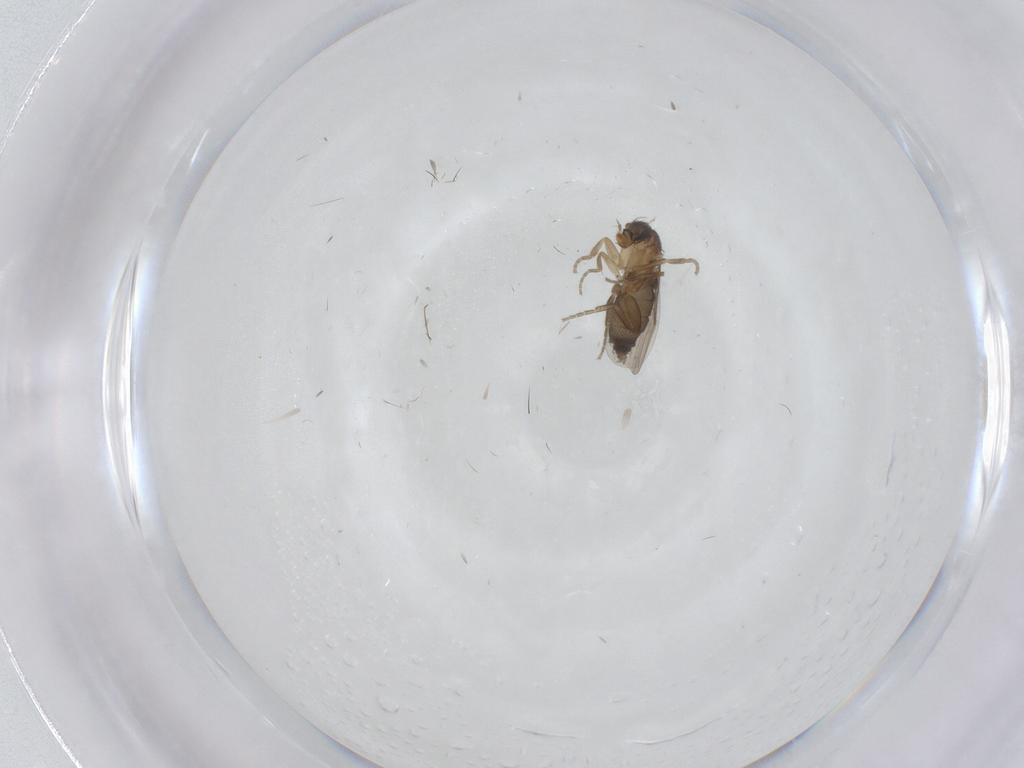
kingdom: Animalia
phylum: Arthropoda
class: Insecta
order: Diptera
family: Phoridae
